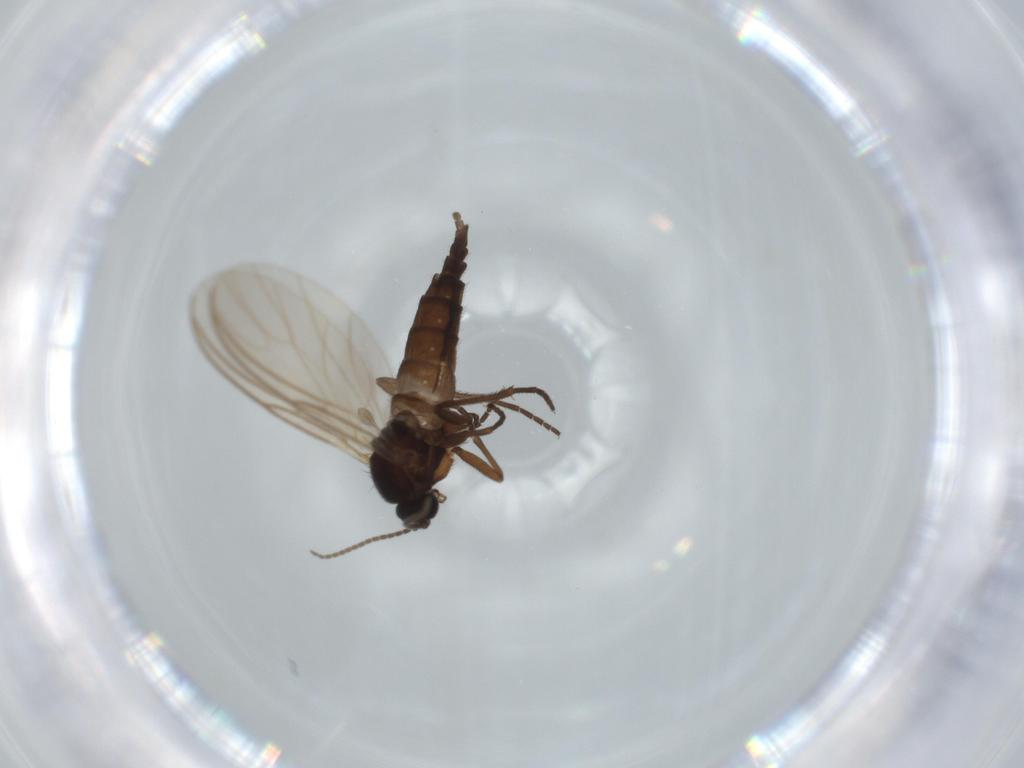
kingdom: Animalia
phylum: Arthropoda
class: Insecta
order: Diptera
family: Sciaridae
